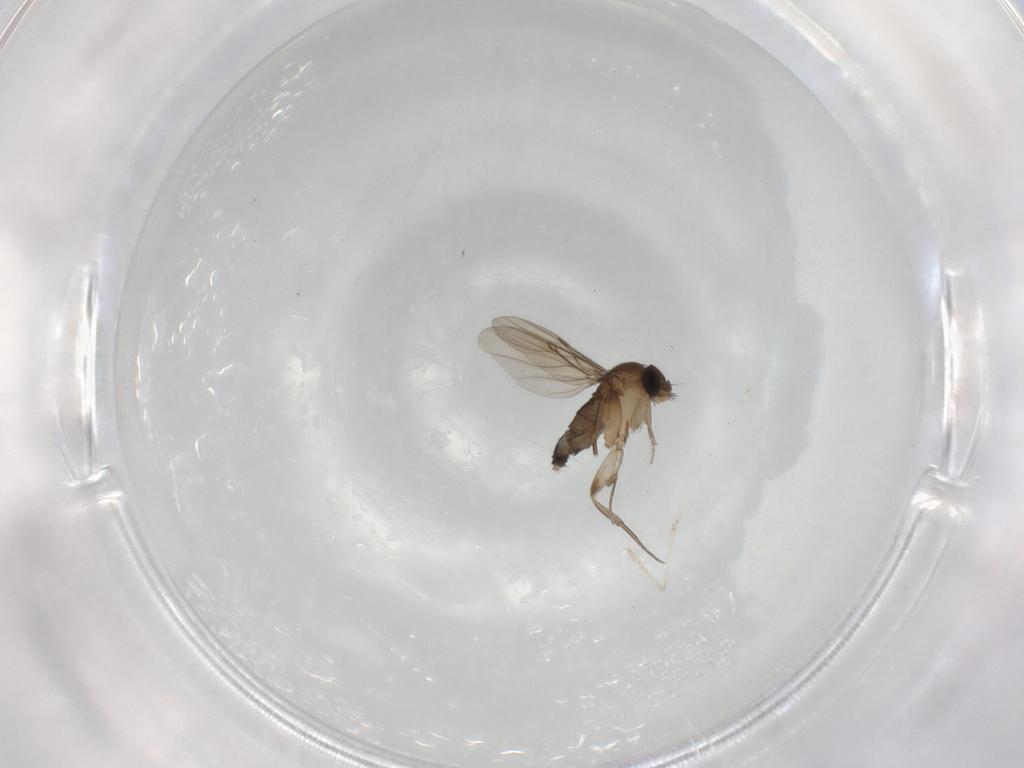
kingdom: Animalia
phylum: Arthropoda
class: Insecta
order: Diptera
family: Phoridae
